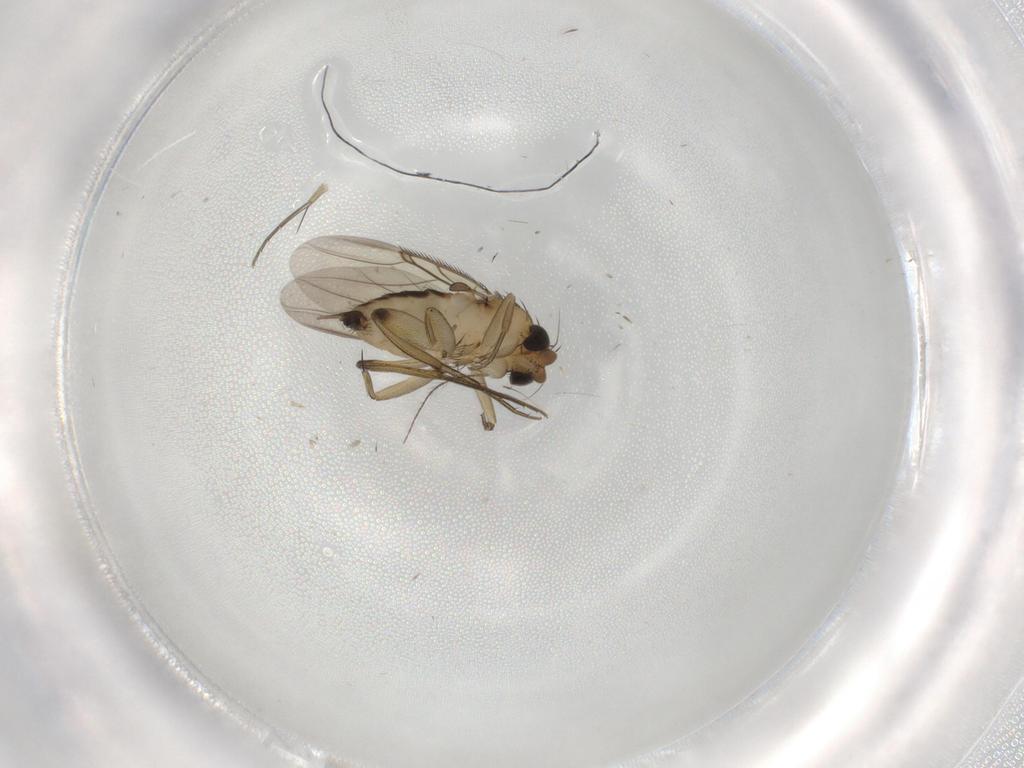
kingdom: Animalia
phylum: Arthropoda
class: Insecta
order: Diptera
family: Phoridae
